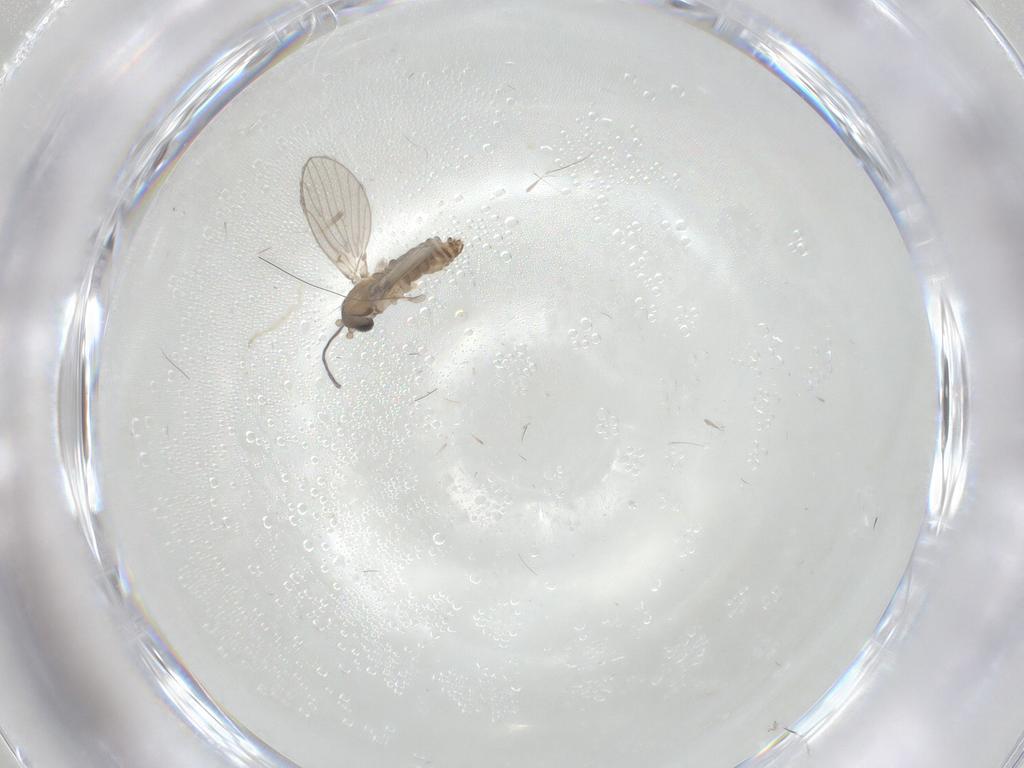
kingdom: Animalia
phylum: Arthropoda
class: Insecta
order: Diptera
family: Psychodidae
